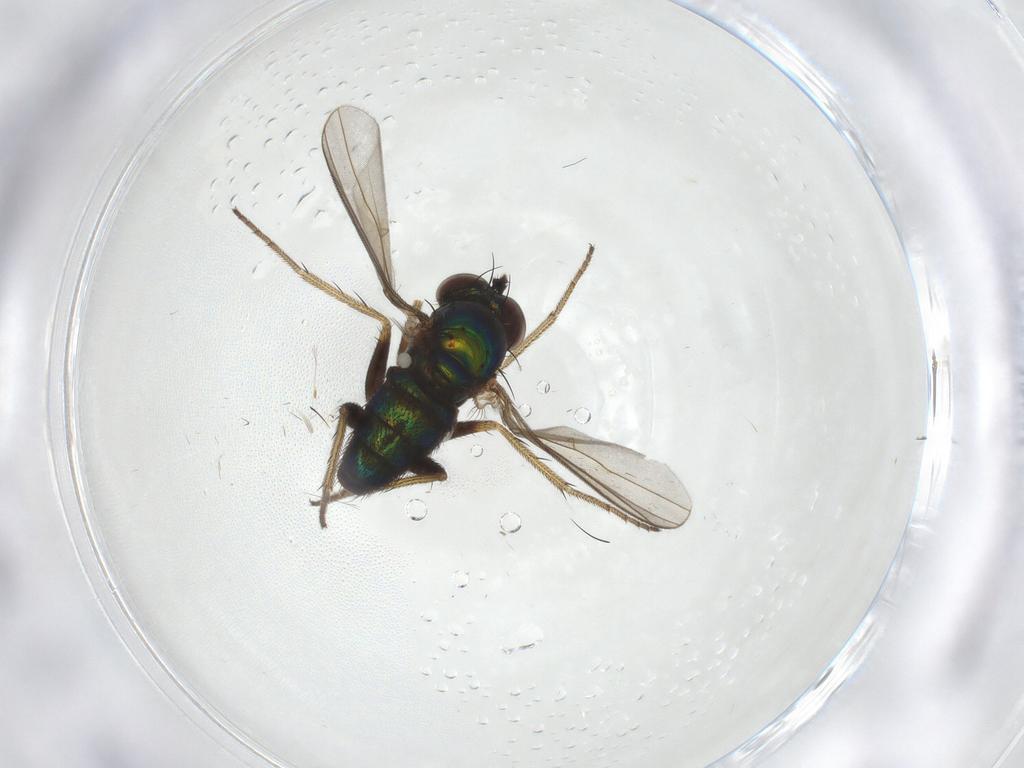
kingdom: Animalia
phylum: Arthropoda
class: Insecta
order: Diptera
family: Dolichopodidae
